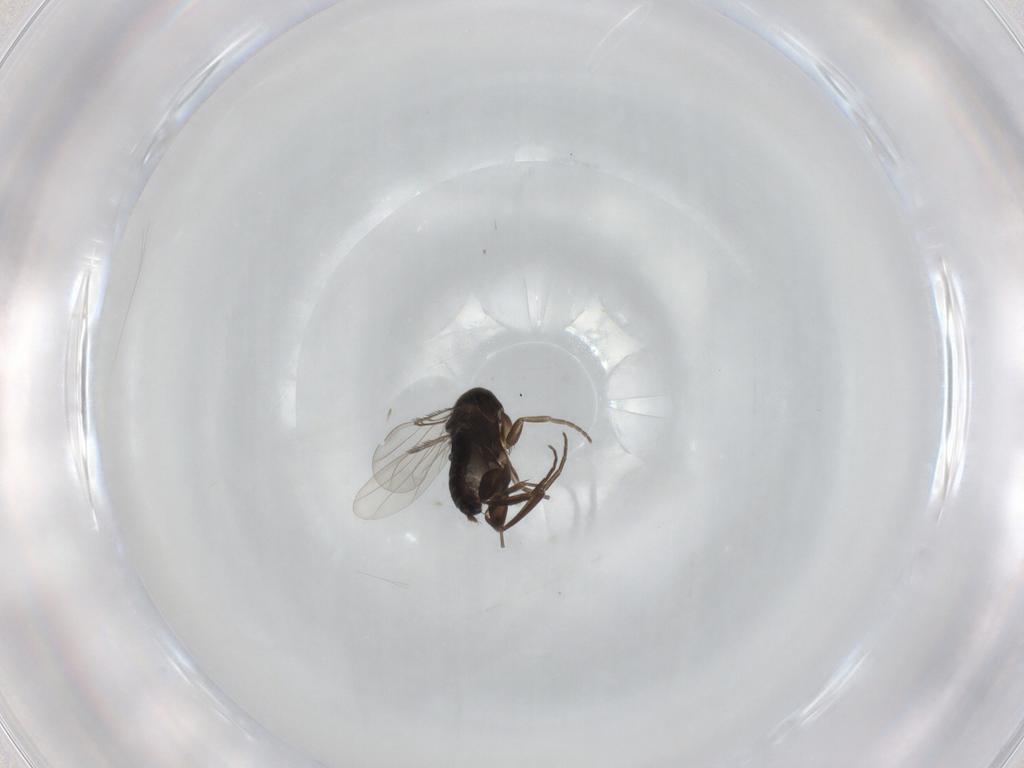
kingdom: Animalia
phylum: Arthropoda
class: Insecta
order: Diptera
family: Phoridae
